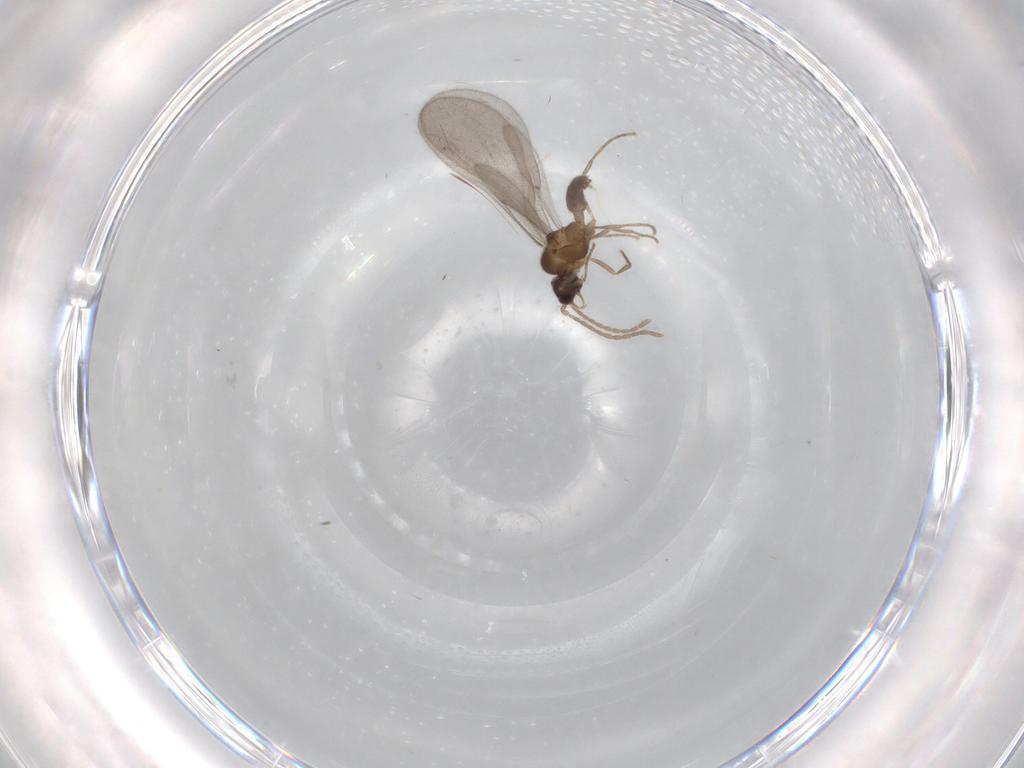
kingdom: Animalia
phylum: Arthropoda
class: Insecta
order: Hymenoptera
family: Formicidae
